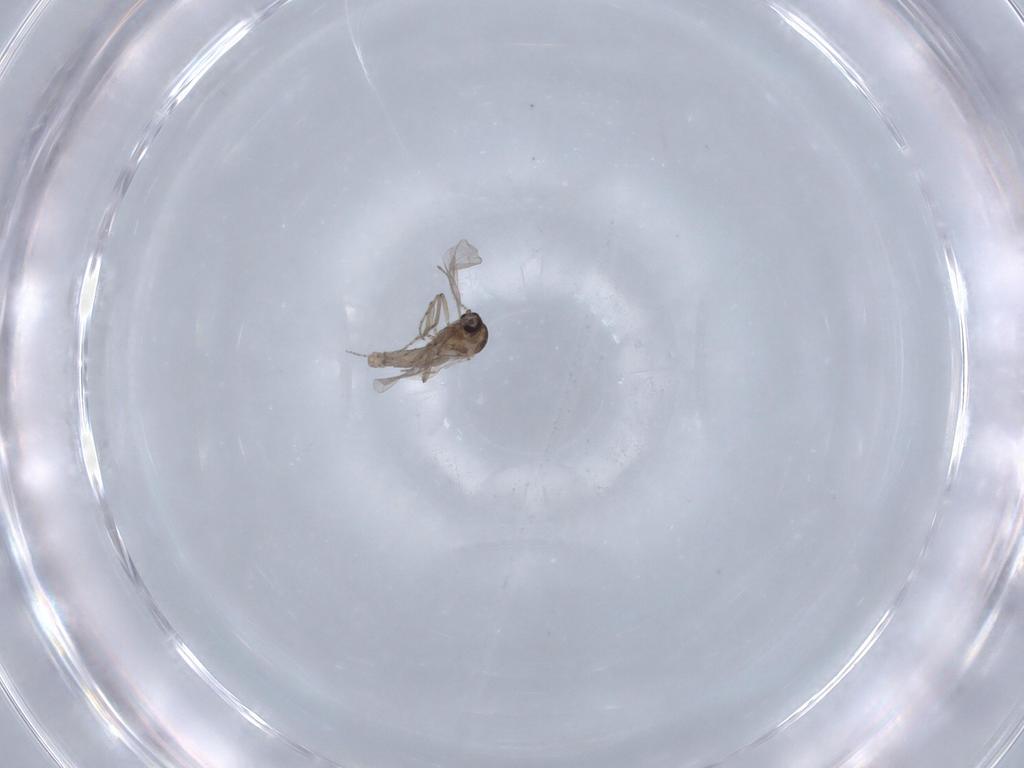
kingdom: Animalia
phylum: Arthropoda
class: Insecta
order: Diptera
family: Ceratopogonidae
